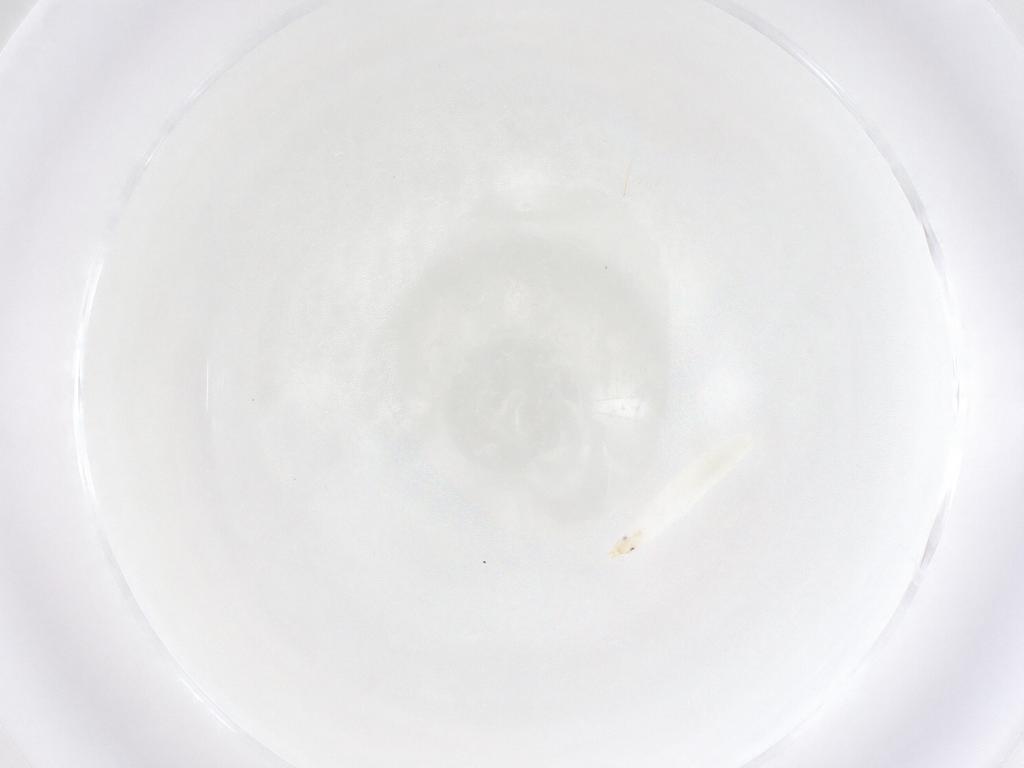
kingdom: Animalia
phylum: Arthropoda
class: Insecta
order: Diptera
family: Stratiomyidae
